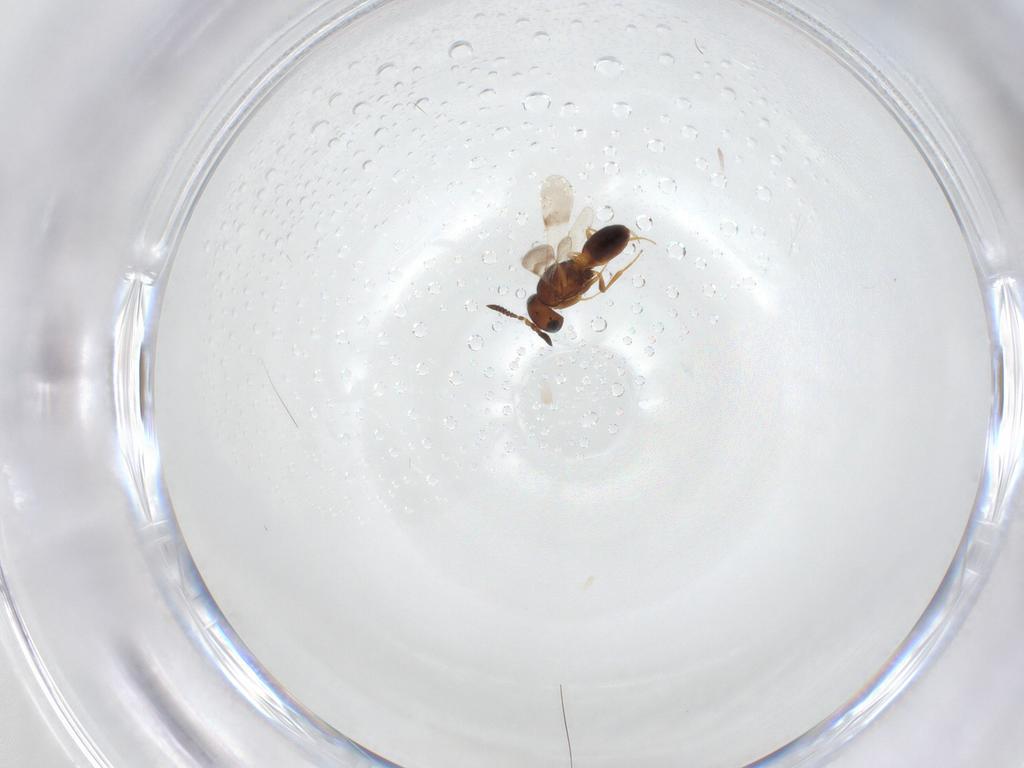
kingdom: Animalia
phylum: Arthropoda
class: Insecta
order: Hymenoptera
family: Scelionidae
